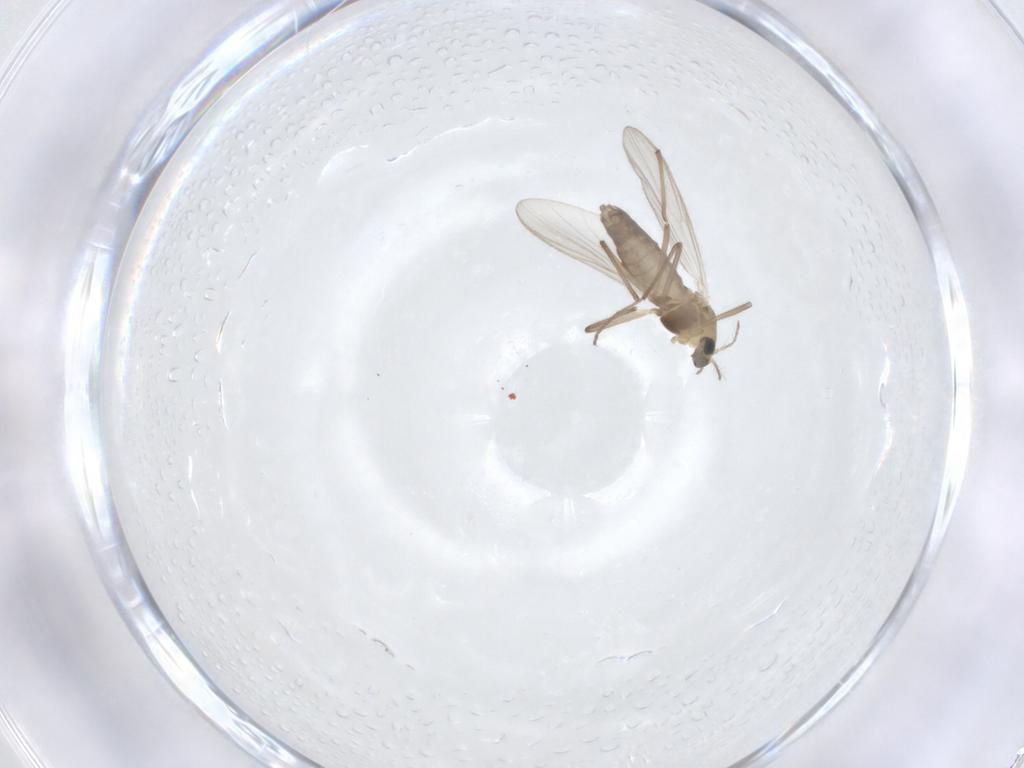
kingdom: Animalia
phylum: Arthropoda
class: Insecta
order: Diptera
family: Chironomidae
